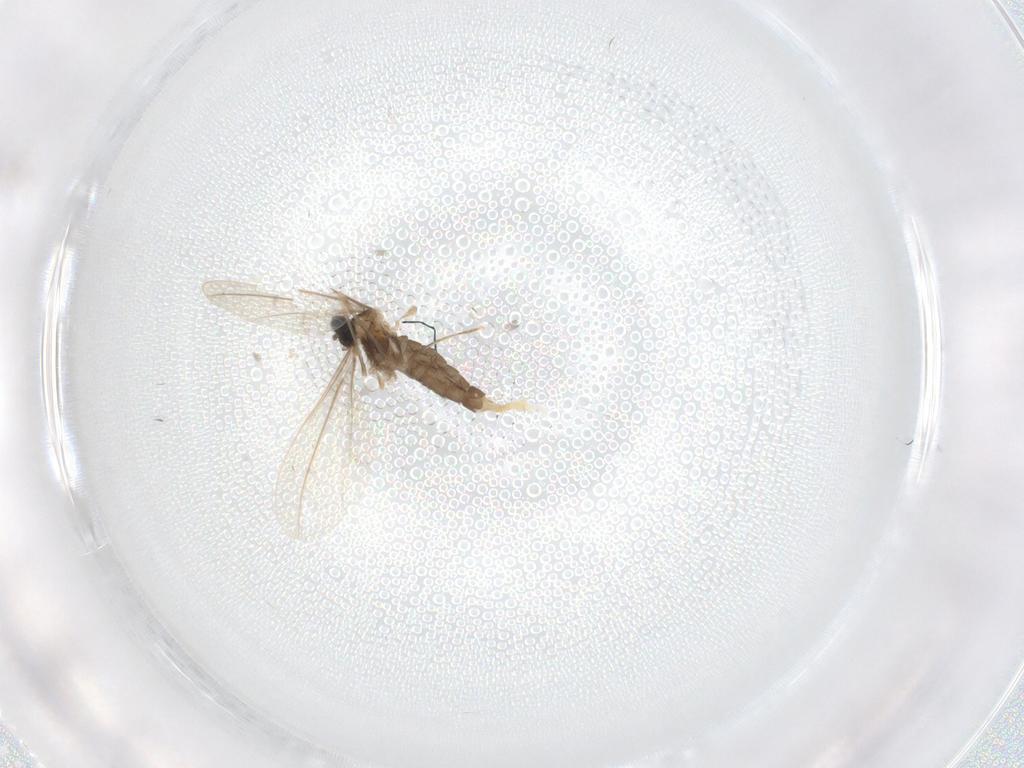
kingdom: Animalia
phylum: Arthropoda
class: Insecta
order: Diptera
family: Cecidomyiidae
